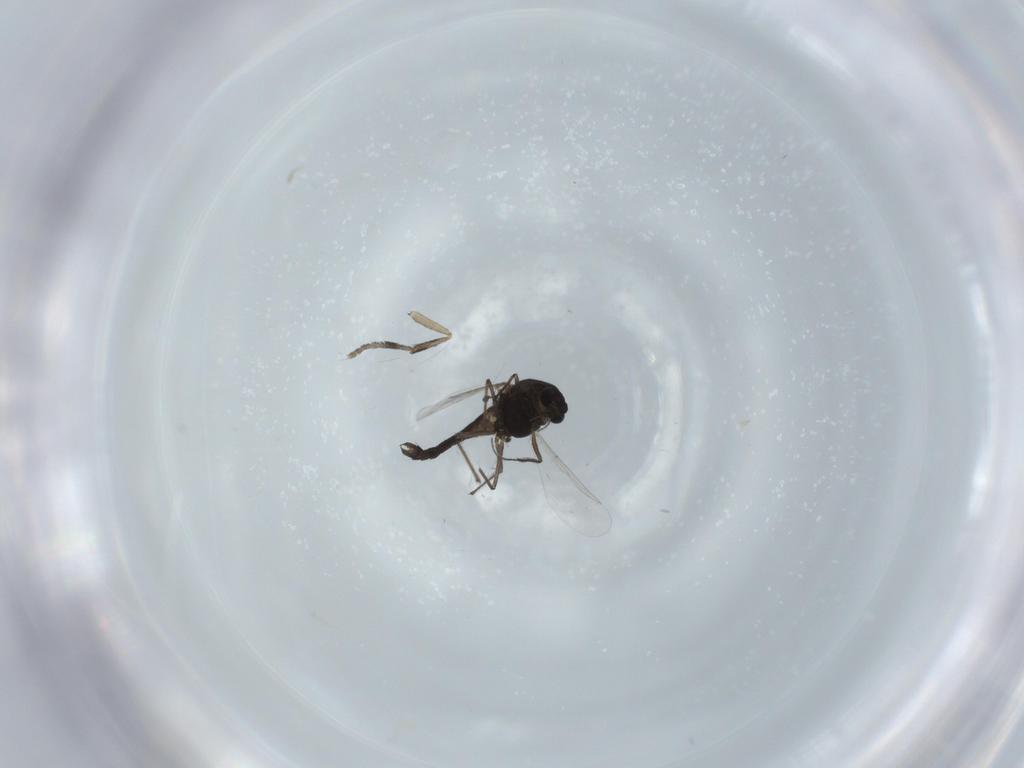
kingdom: Animalia
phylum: Arthropoda
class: Insecta
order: Diptera
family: Chironomidae
